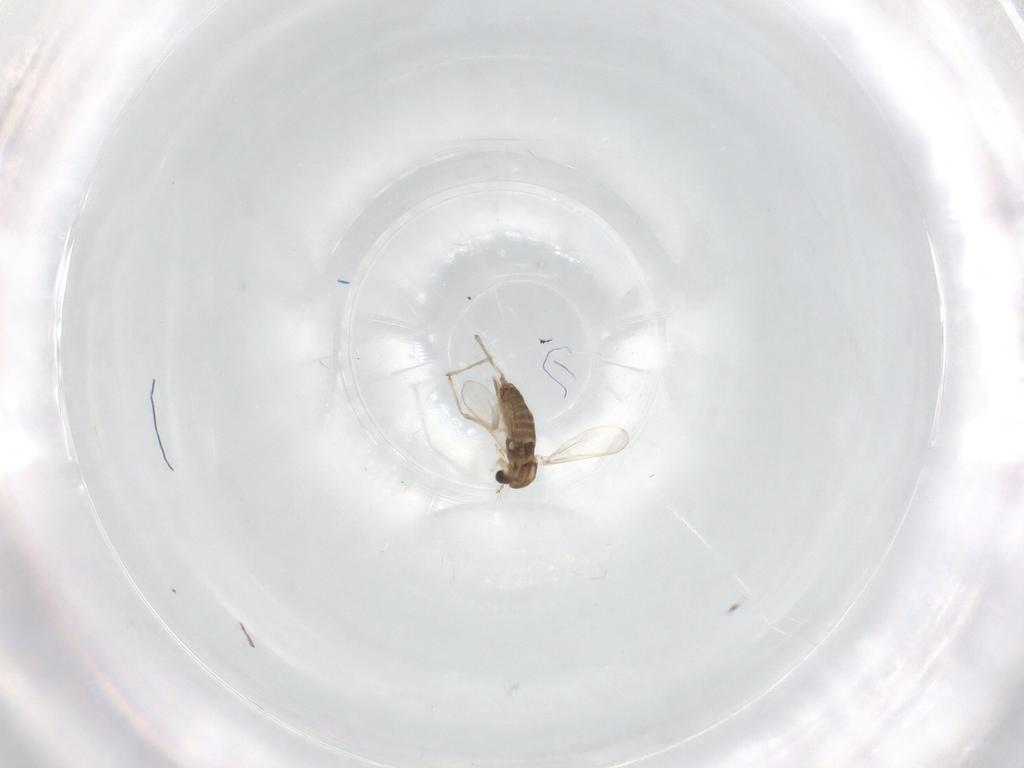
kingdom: Animalia
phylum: Arthropoda
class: Insecta
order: Diptera
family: Chironomidae
